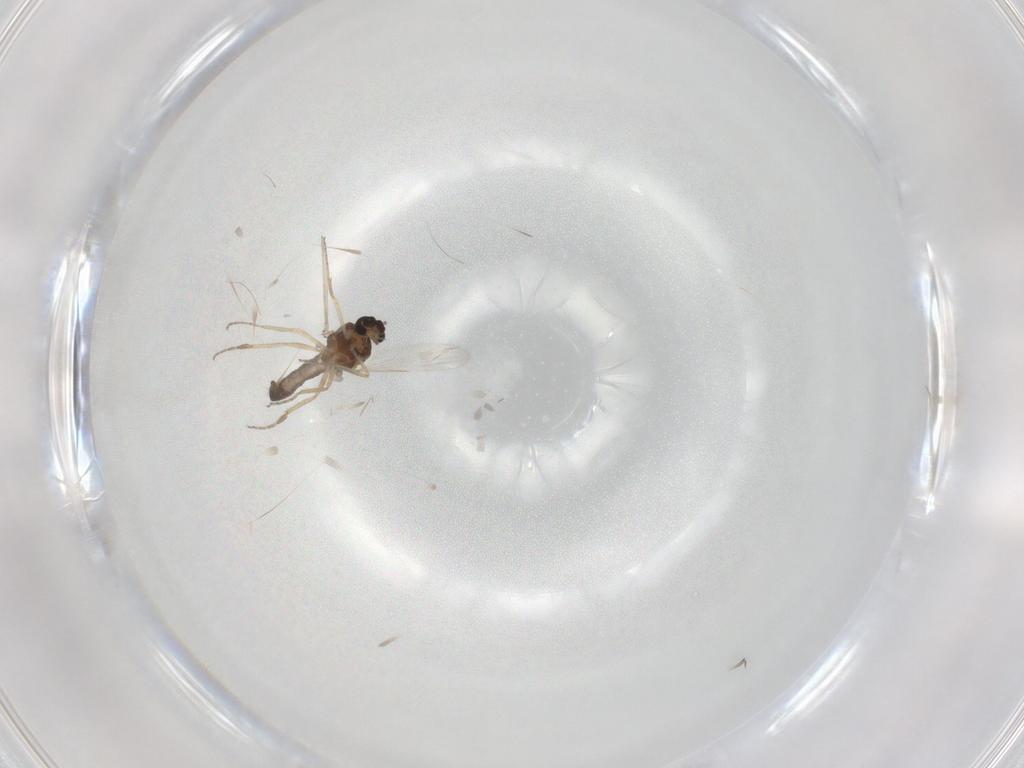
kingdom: Animalia
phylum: Arthropoda
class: Insecta
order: Diptera
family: Ceratopogonidae
